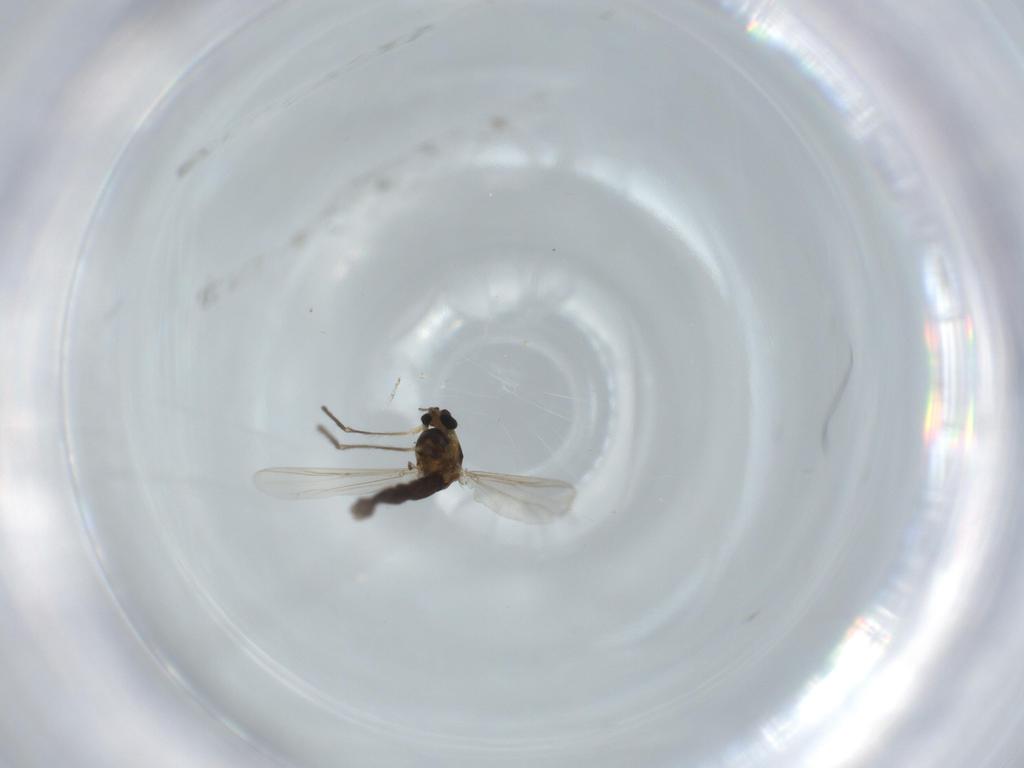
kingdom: Animalia
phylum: Arthropoda
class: Insecta
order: Diptera
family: Chironomidae
